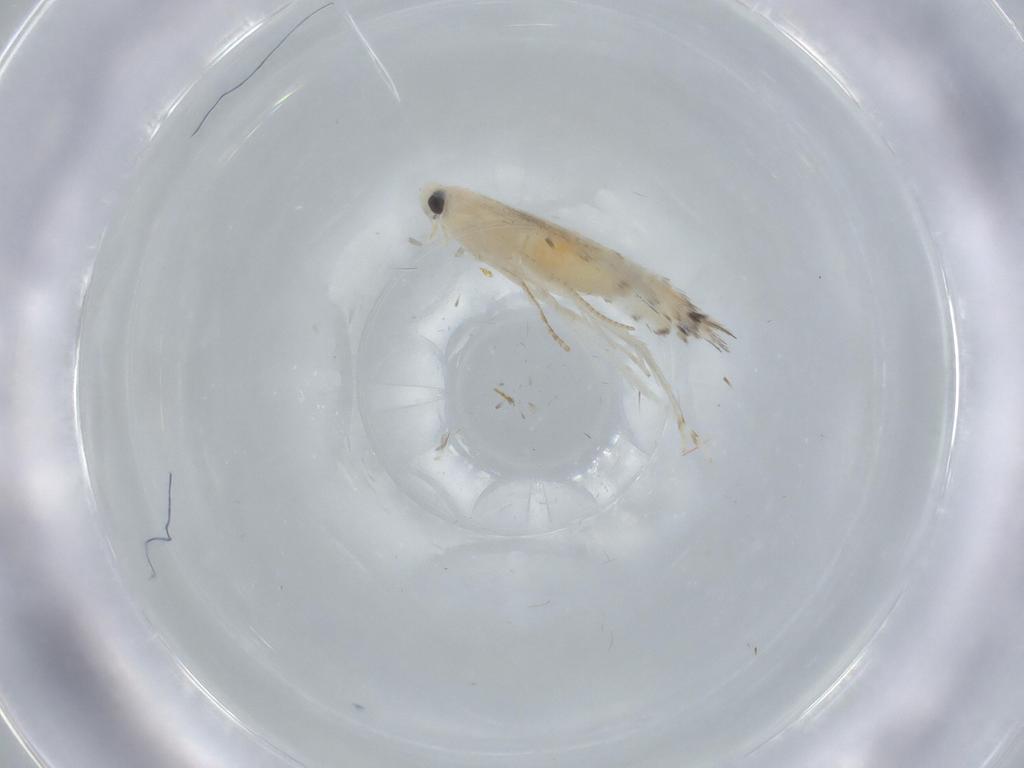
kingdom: Animalia
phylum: Arthropoda
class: Insecta
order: Lepidoptera
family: Gracillariidae
